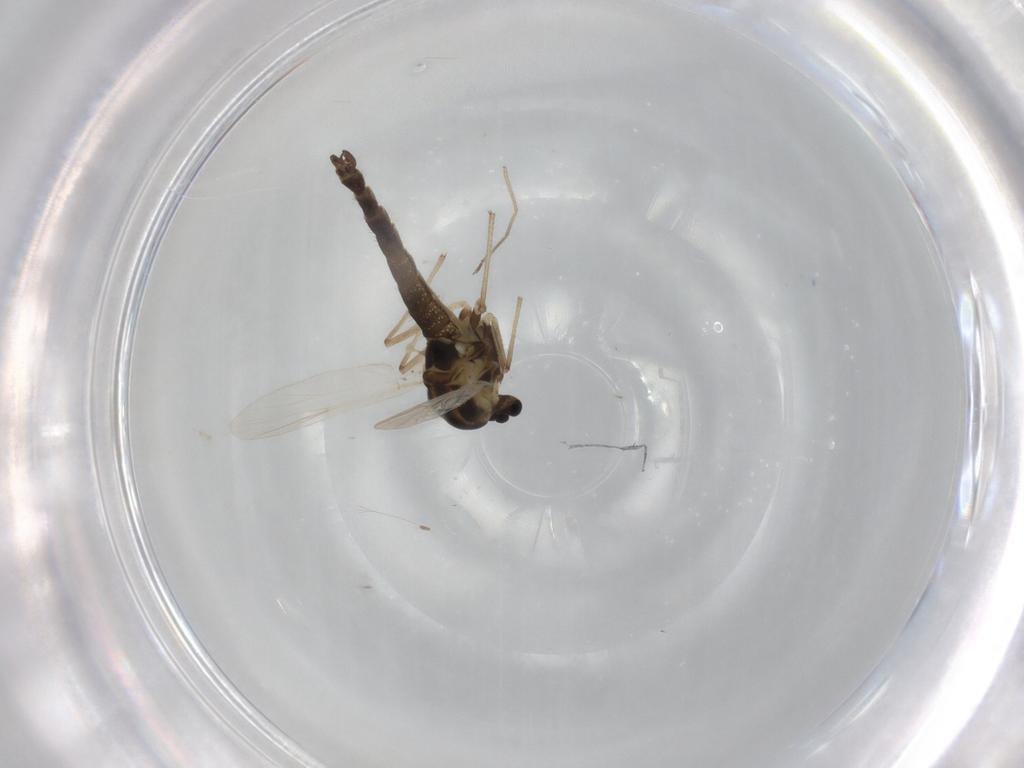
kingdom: Animalia
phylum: Arthropoda
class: Insecta
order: Diptera
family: Chironomidae
